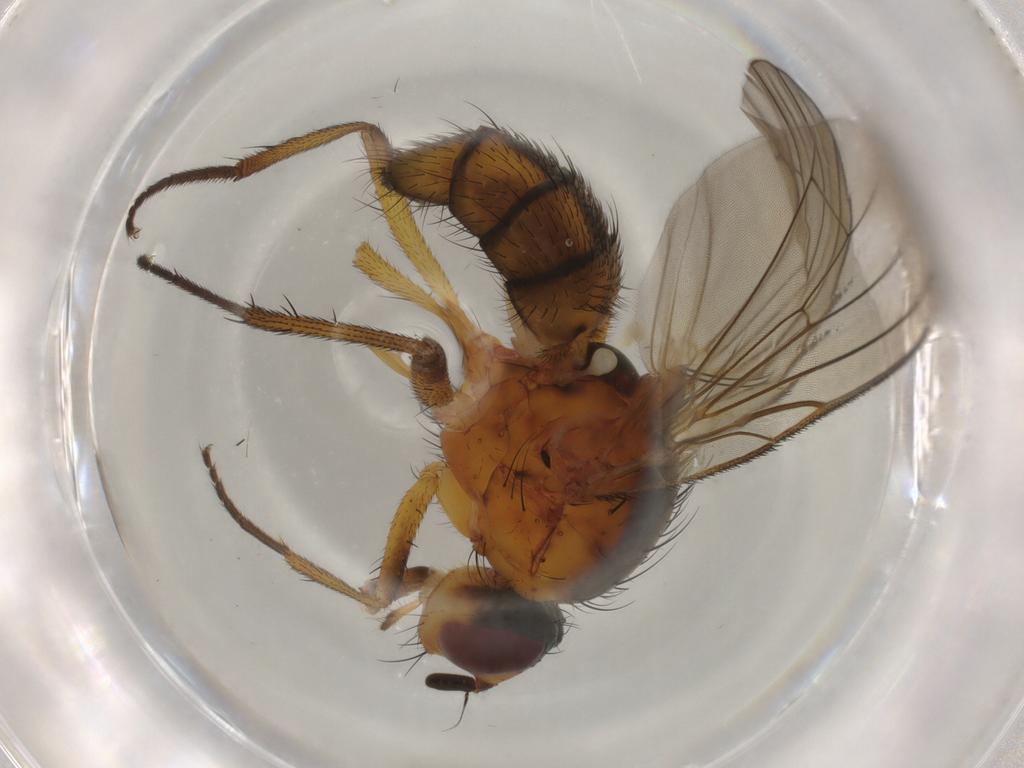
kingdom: Animalia
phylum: Arthropoda
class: Insecta
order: Diptera
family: Anthomyiidae
